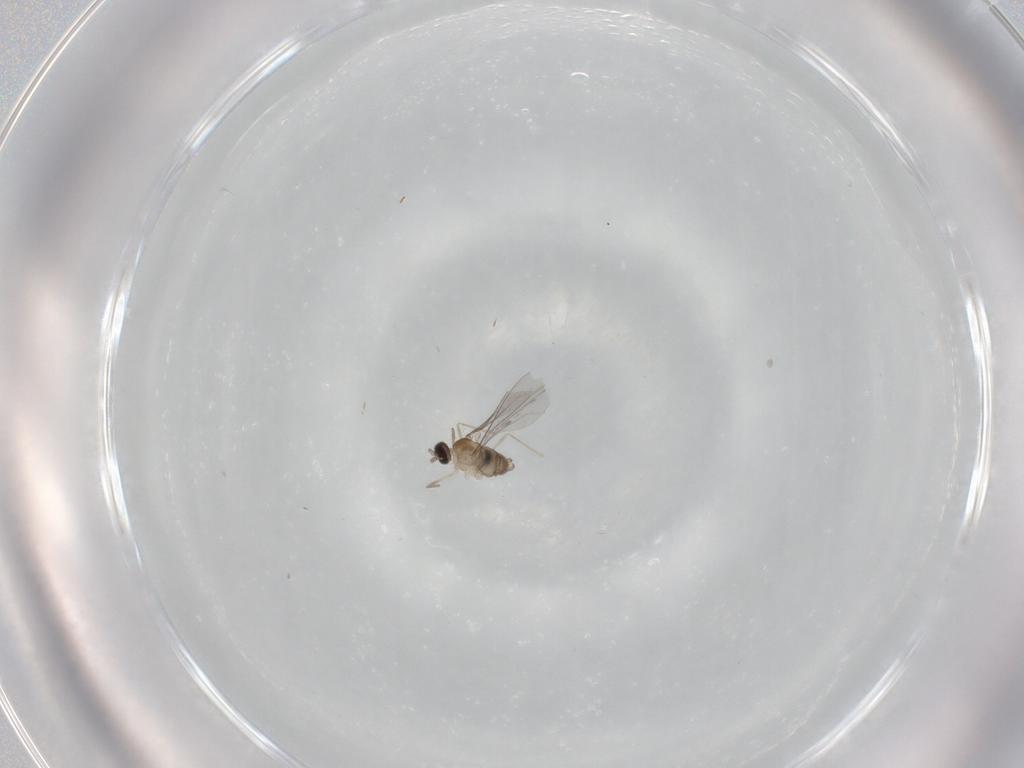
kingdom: Animalia
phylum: Arthropoda
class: Insecta
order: Diptera
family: Cecidomyiidae
